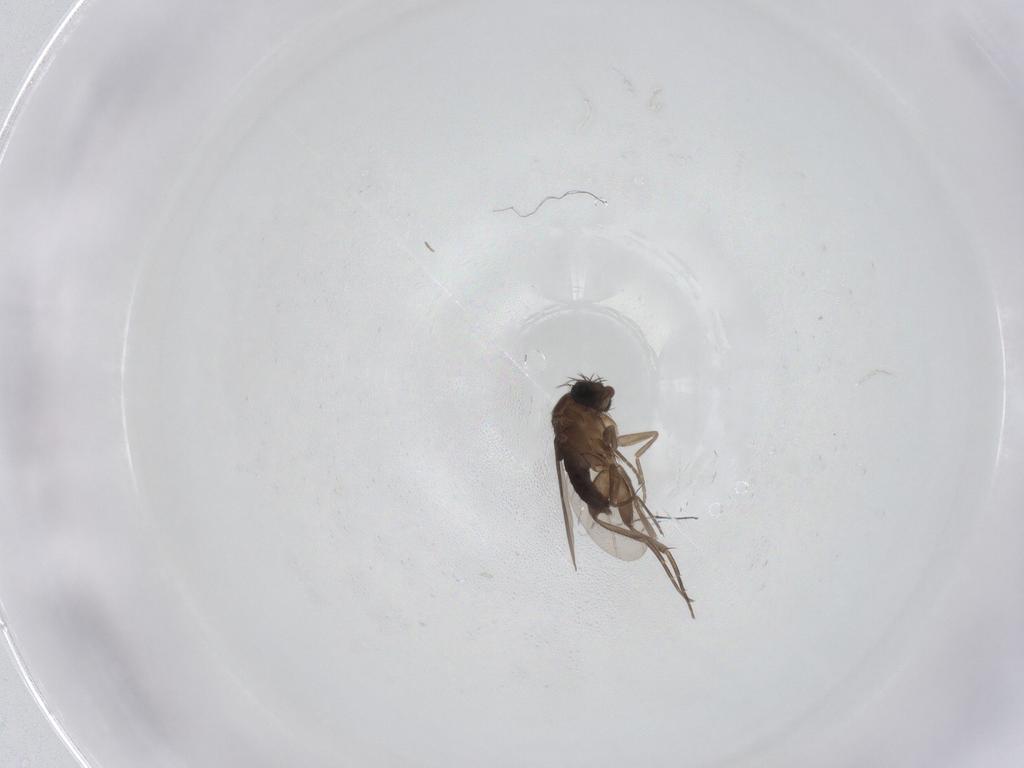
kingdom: Animalia
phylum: Arthropoda
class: Insecta
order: Diptera
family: Phoridae
